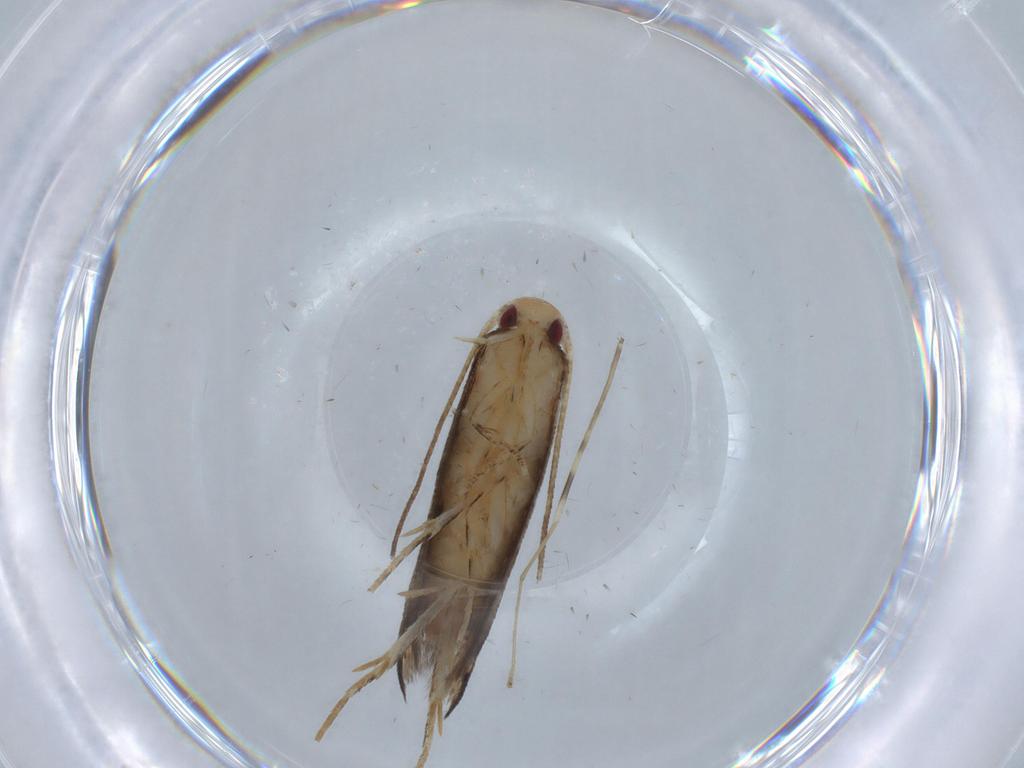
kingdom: Animalia
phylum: Arthropoda
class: Insecta
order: Lepidoptera
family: Momphidae
